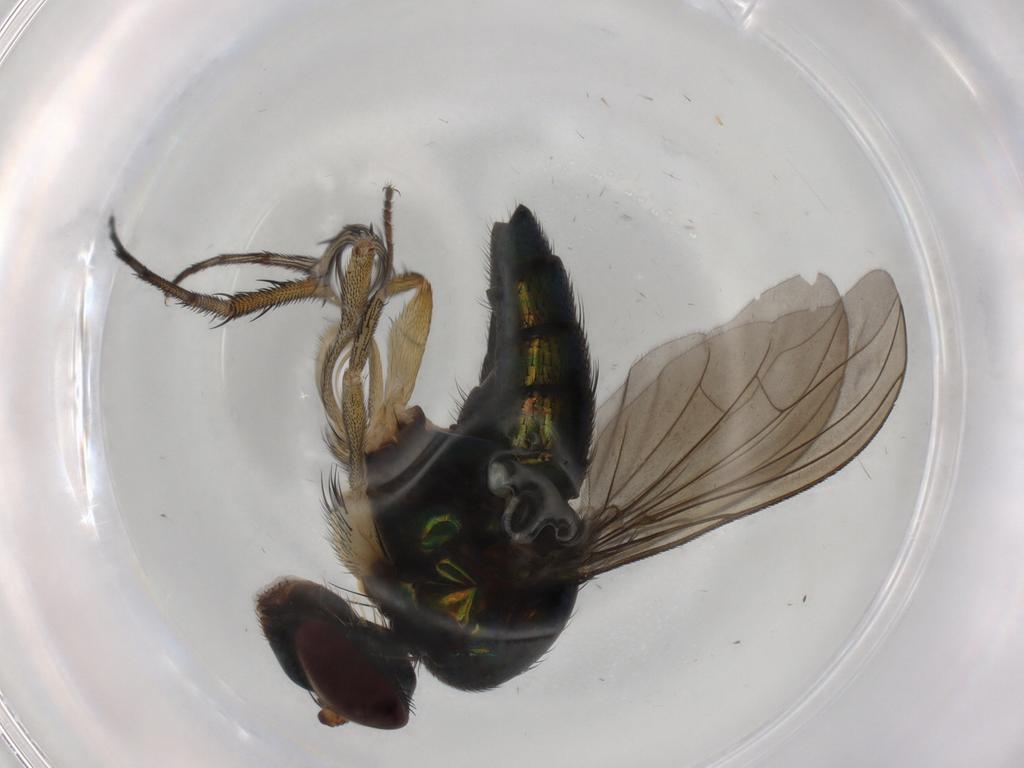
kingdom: Animalia
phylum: Arthropoda
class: Insecta
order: Diptera
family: Dolichopodidae
